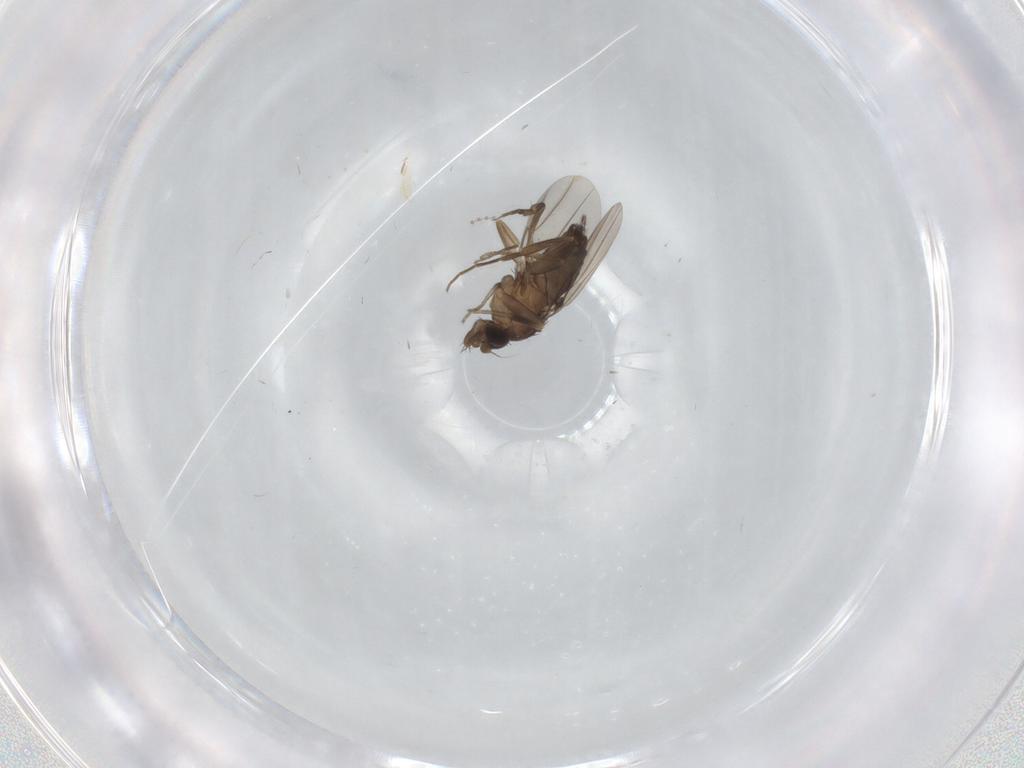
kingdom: Animalia
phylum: Arthropoda
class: Insecta
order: Diptera
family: Phoridae
